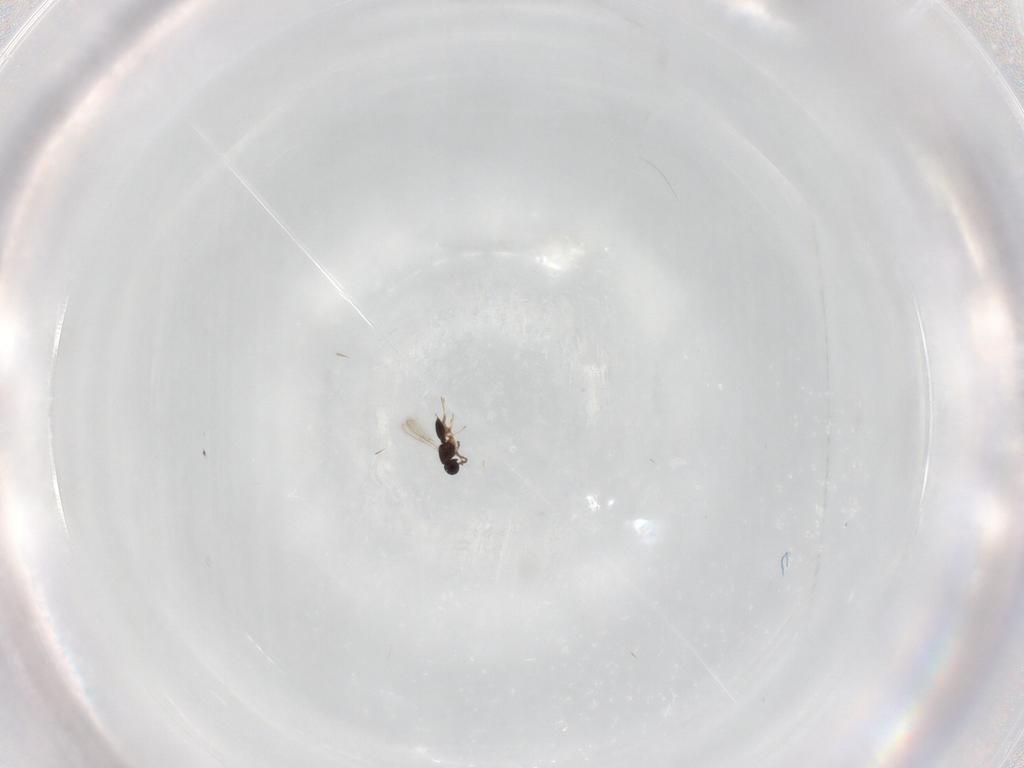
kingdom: Animalia
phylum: Arthropoda
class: Insecta
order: Hymenoptera
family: Scelionidae
